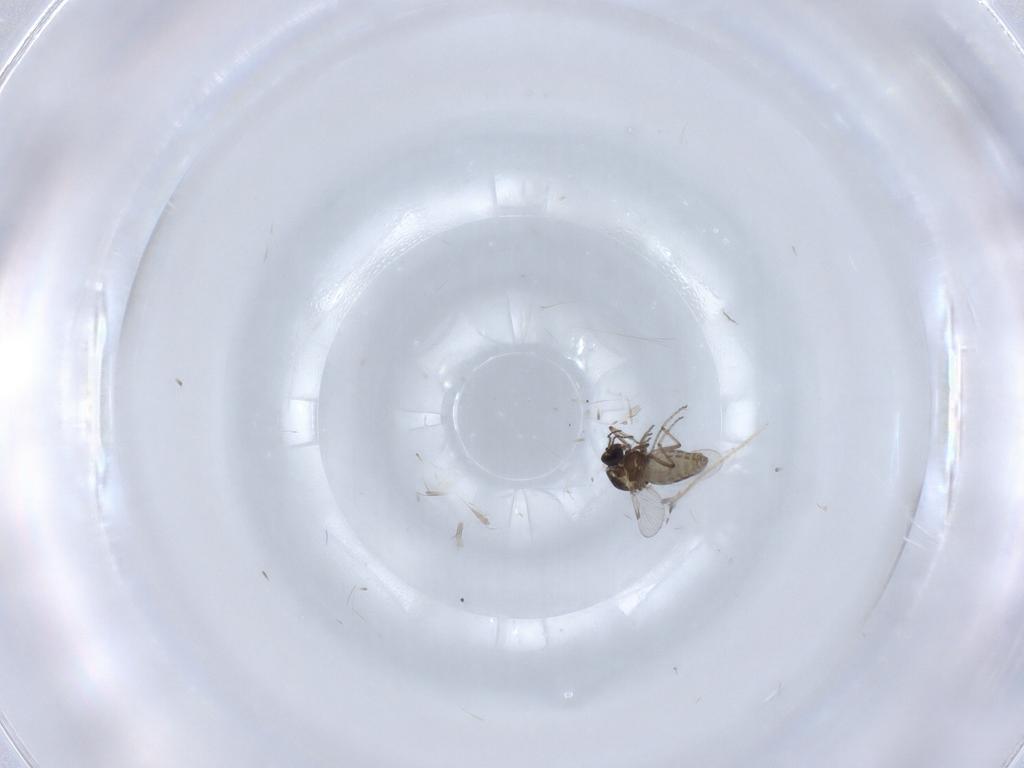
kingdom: Animalia
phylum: Arthropoda
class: Insecta
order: Diptera
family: Ceratopogonidae
